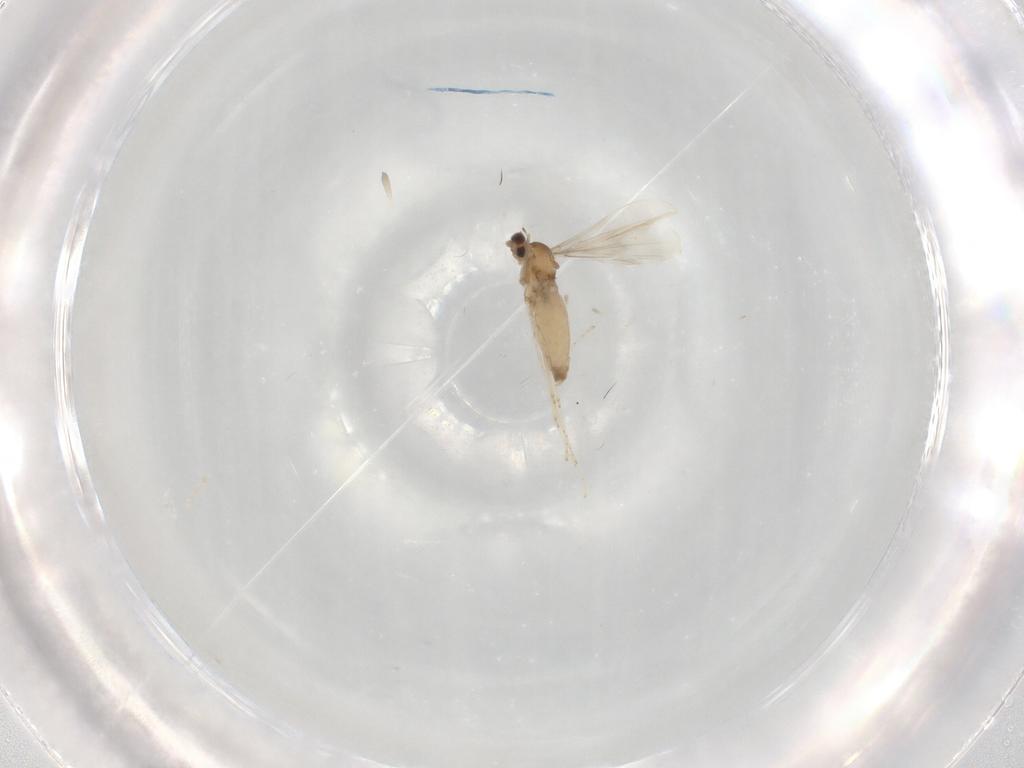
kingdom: Animalia
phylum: Arthropoda
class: Insecta
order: Diptera
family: Cecidomyiidae
